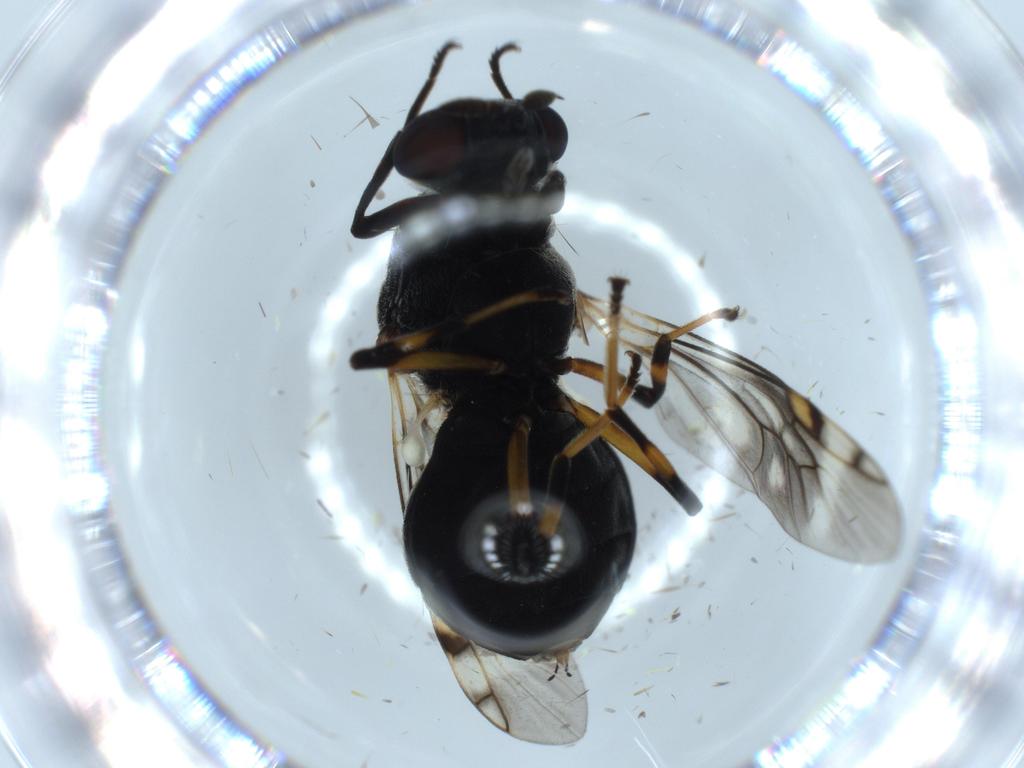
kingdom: Animalia
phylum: Arthropoda
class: Insecta
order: Diptera
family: Stratiomyidae
